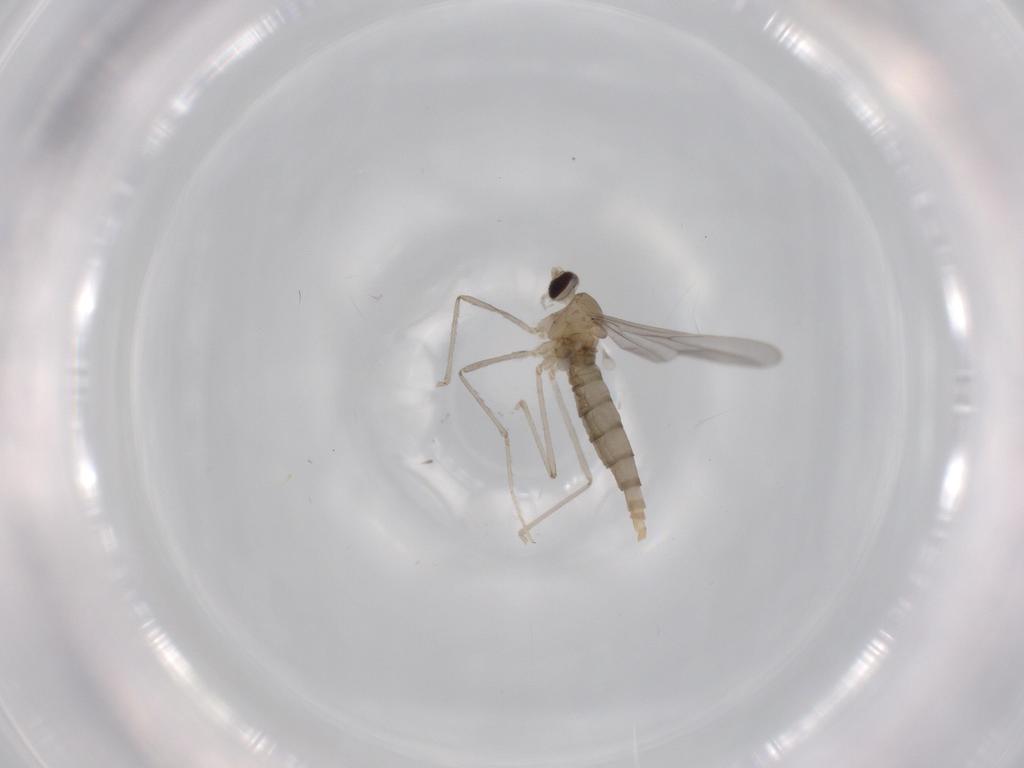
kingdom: Animalia
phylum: Arthropoda
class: Insecta
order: Diptera
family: Cecidomyiidae
